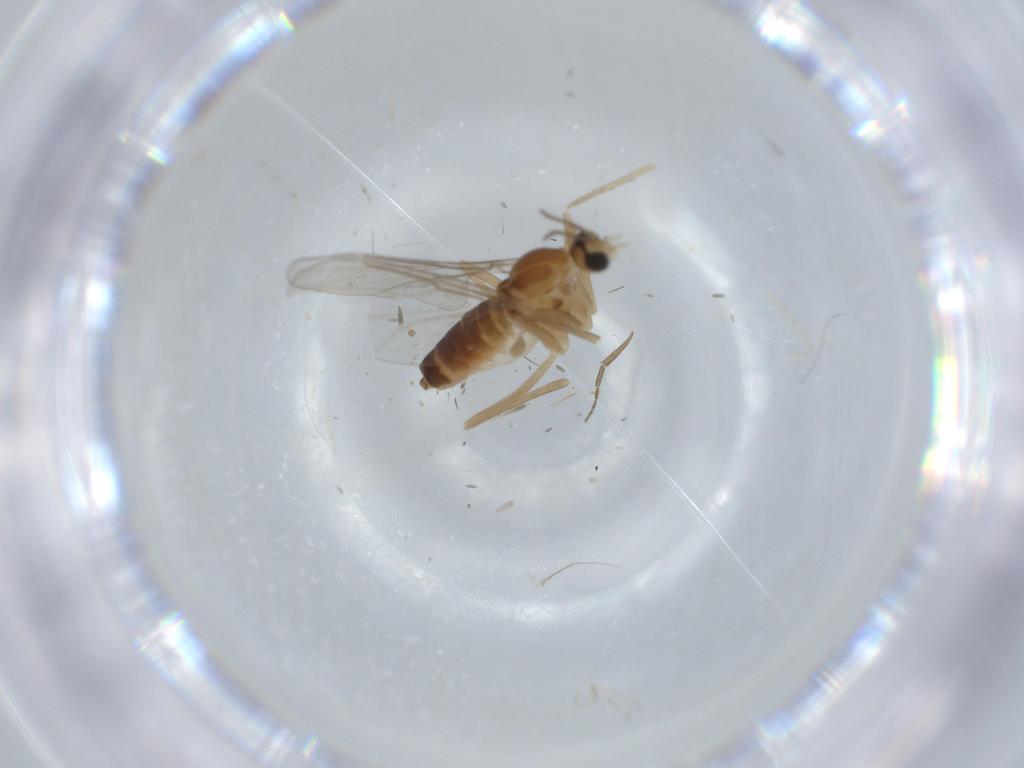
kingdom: Animalia
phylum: Arthropoda
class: Insecta
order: Diptera
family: Cecidomyiidae
